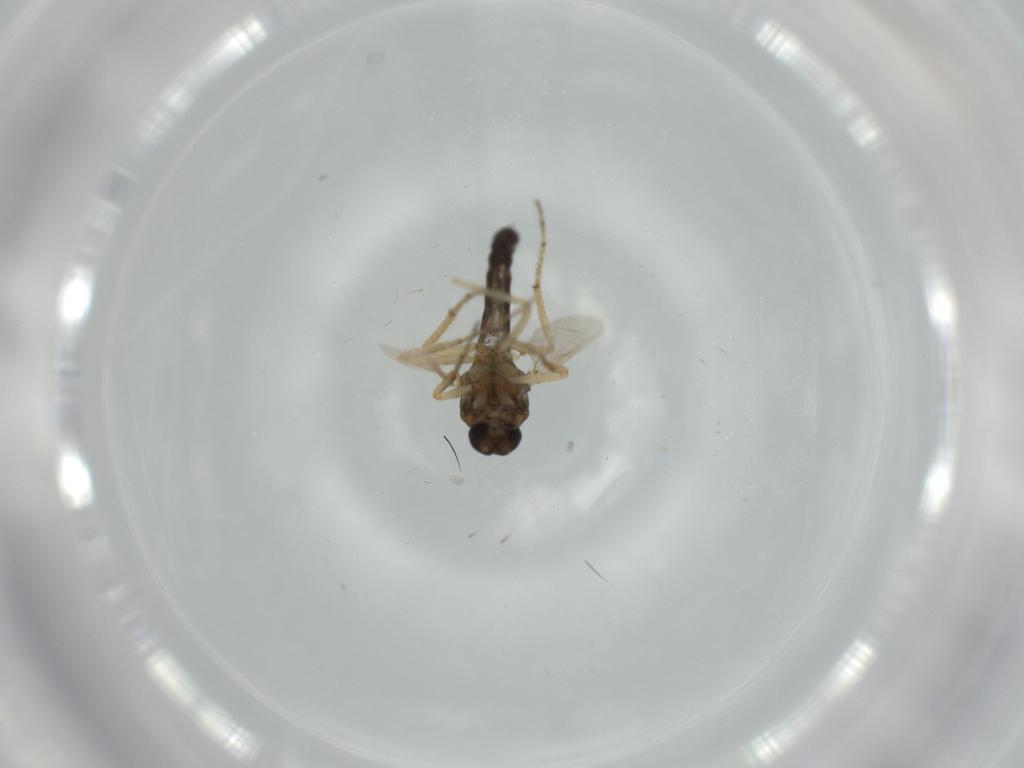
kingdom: Animalia
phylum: Arthropoda
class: Insecta
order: Diptera
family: Ceratopogonidae
